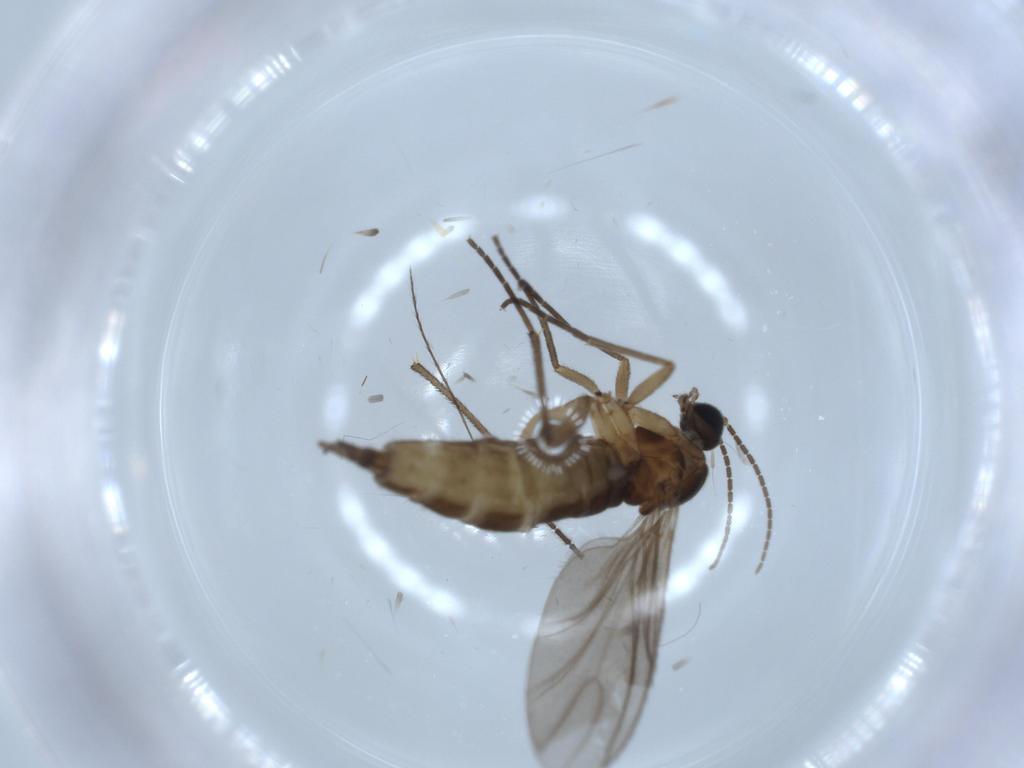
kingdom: Animalia
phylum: Arthropoda
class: Insecta
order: Diptera
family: Sciaridae
